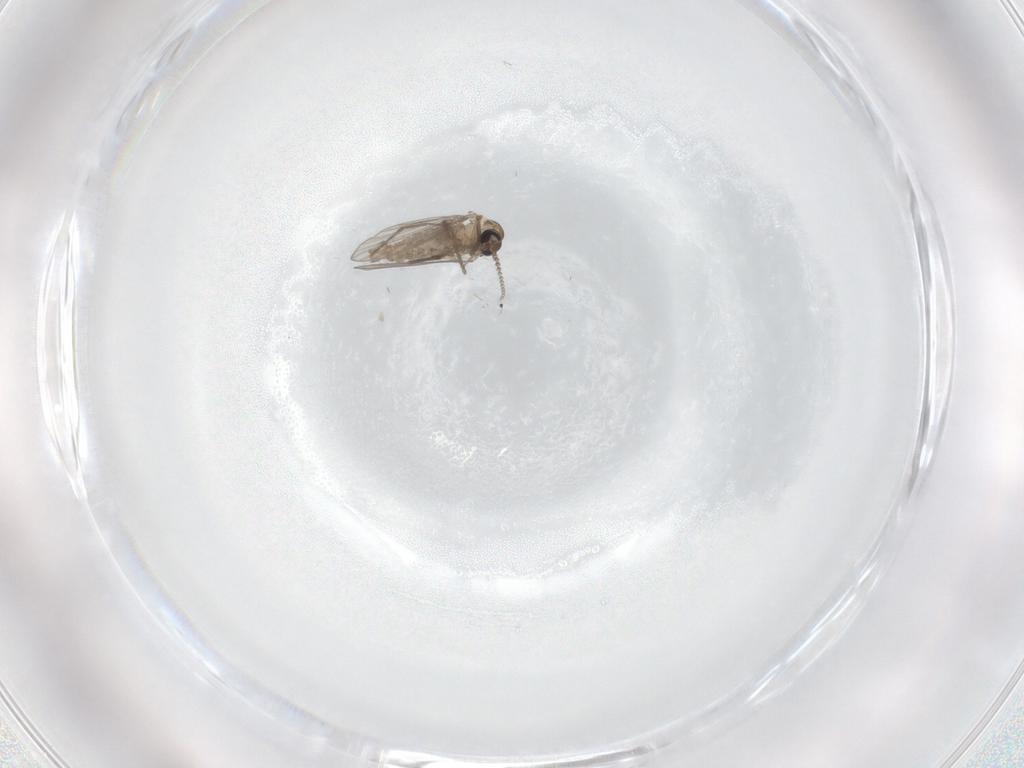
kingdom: Animalia
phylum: Arthropoda
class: Insecta
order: Diptera
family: Psychodidae
